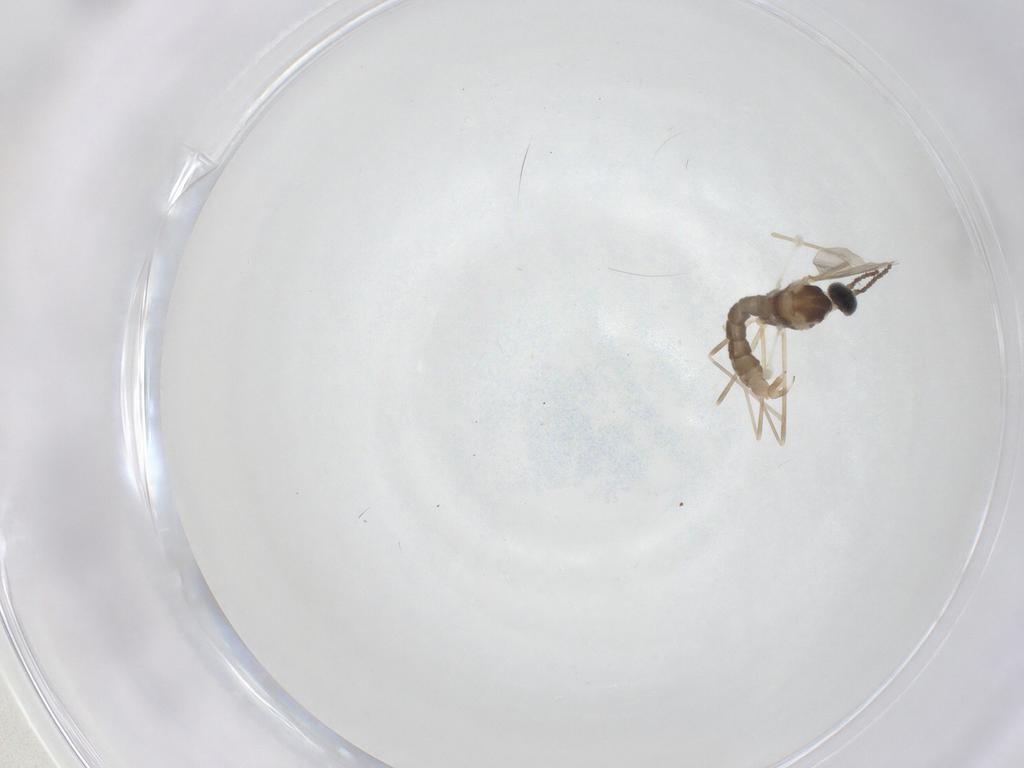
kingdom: Animalia
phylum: Arthropoda
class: Insecta
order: Diptera
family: Cecidomyiidae
